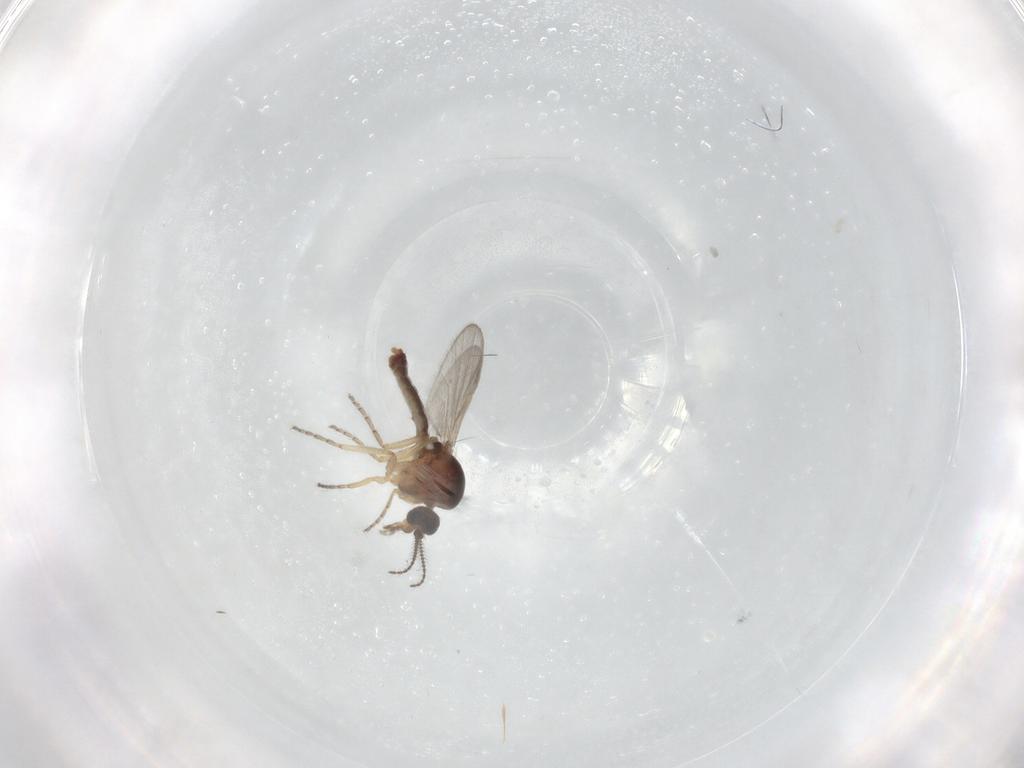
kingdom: Animalia
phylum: Arthropoda
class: Insecta
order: Diptera
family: Ceratopogonidae
